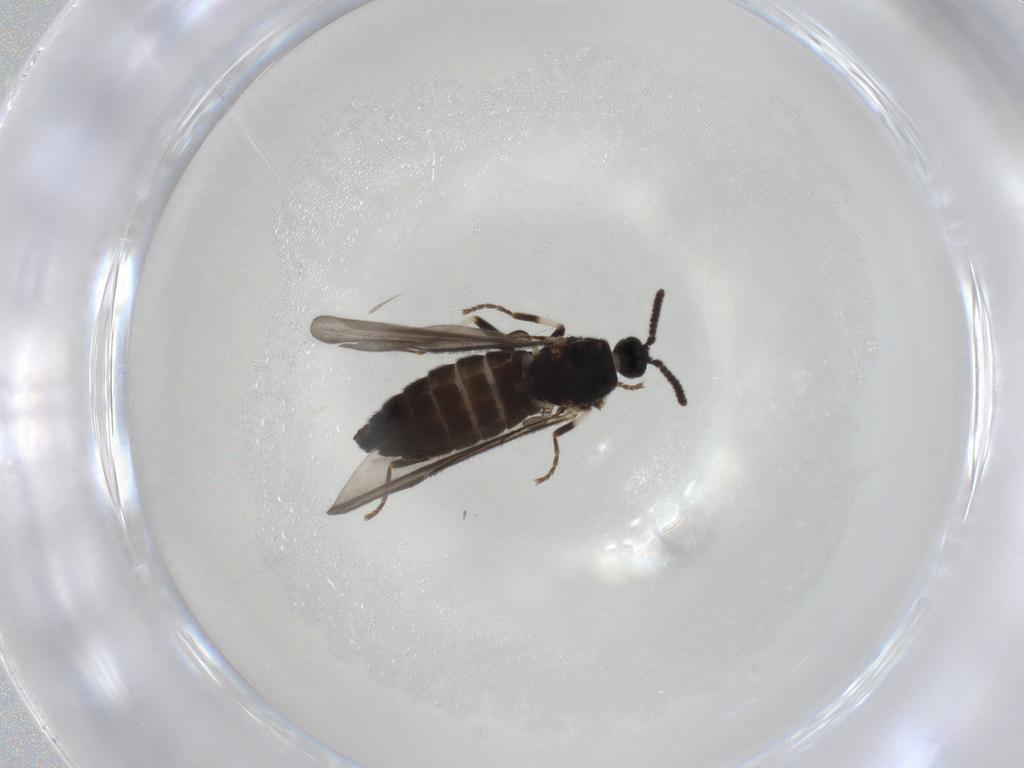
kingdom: Animalia
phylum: Arthropoda
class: Insecta
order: Diptera
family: Scatopsidae
